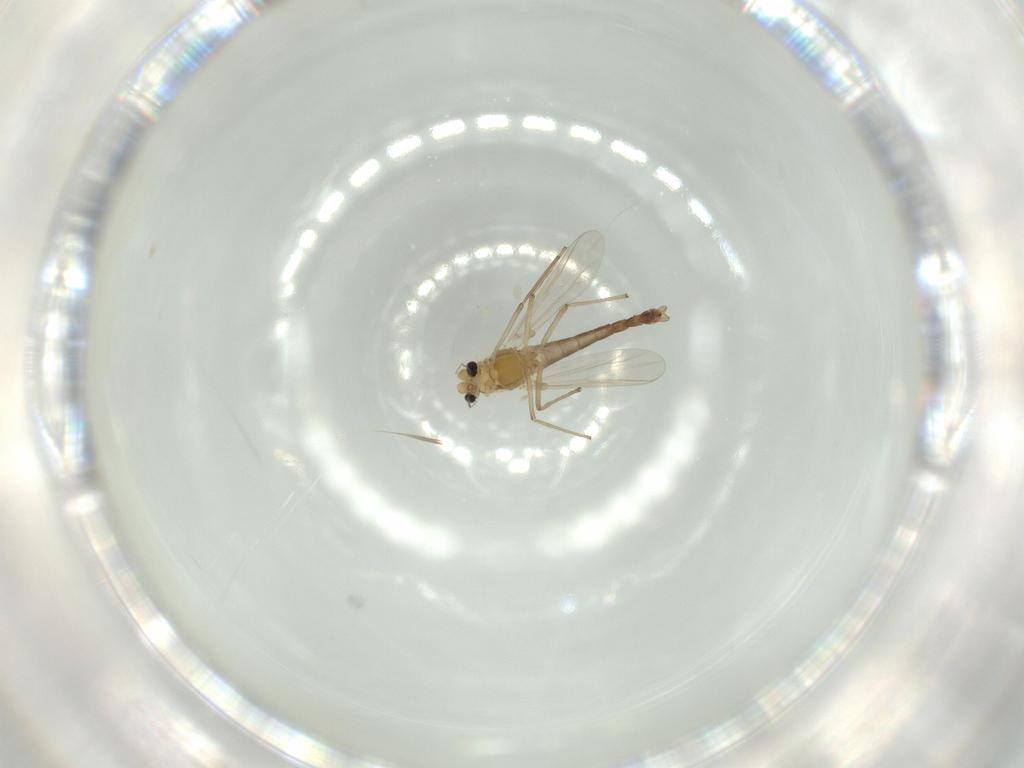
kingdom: Animalia
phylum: Arthropoda
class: Insecta
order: Diptera
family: Chironomidae
